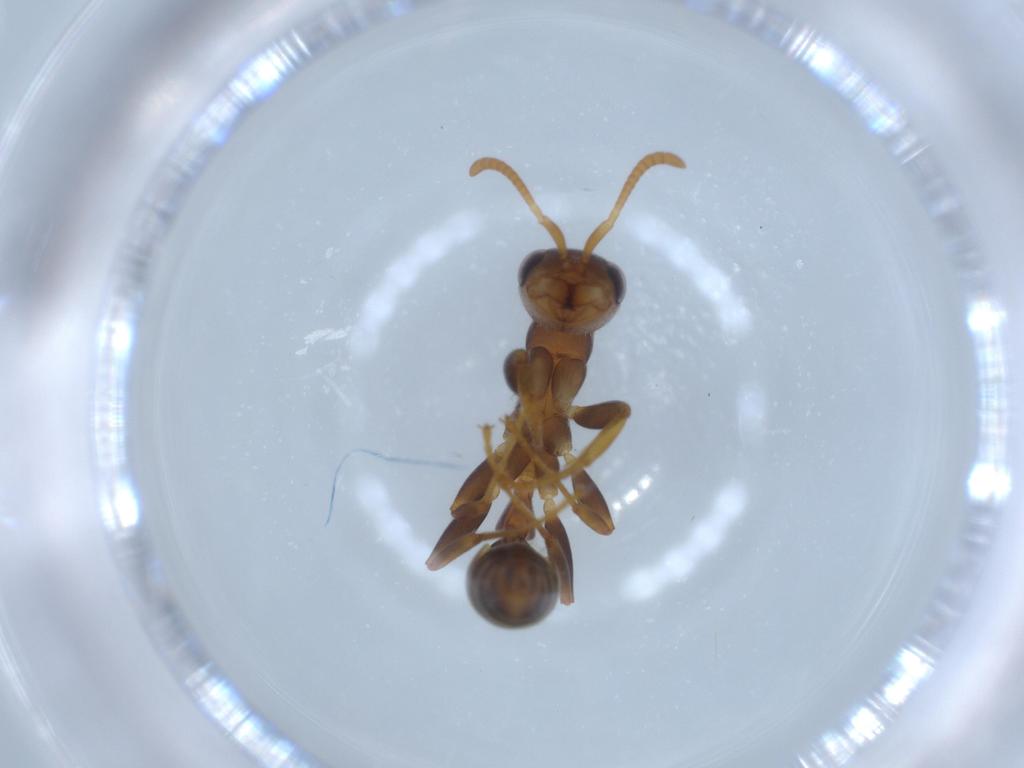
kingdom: Animalia
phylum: Arthropoda
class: Insecta
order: Hymenoptera
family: Formicidae
